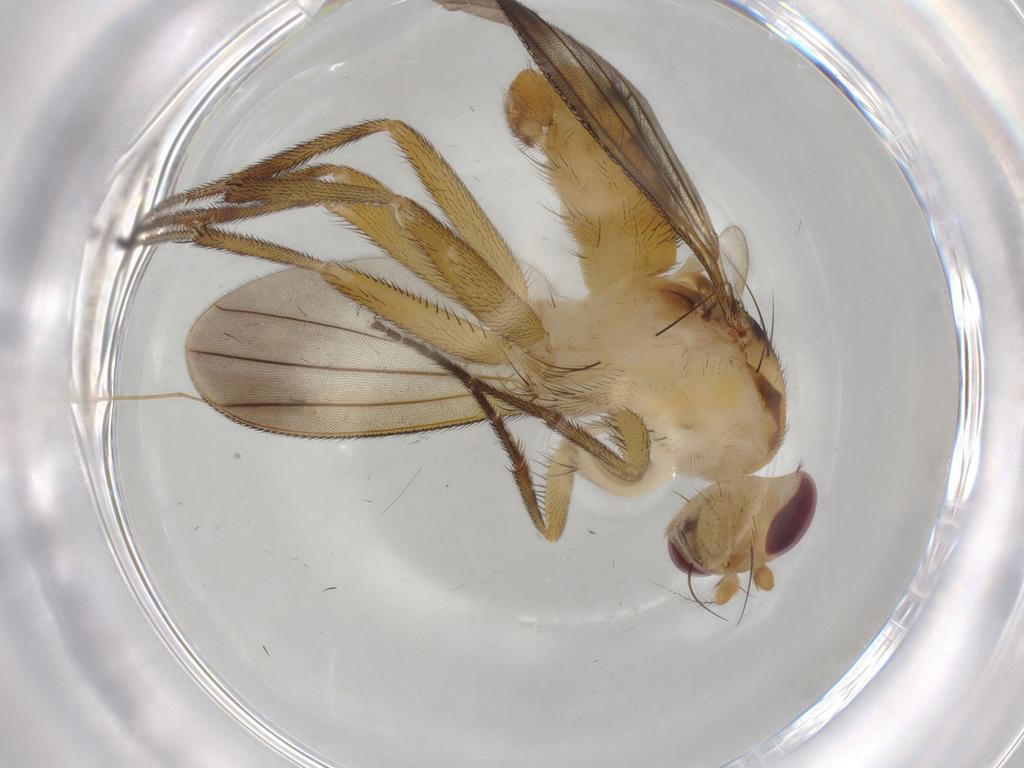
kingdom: Animalia
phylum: Arthropoda
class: Insecta
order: Diptera
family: Clusiidae
